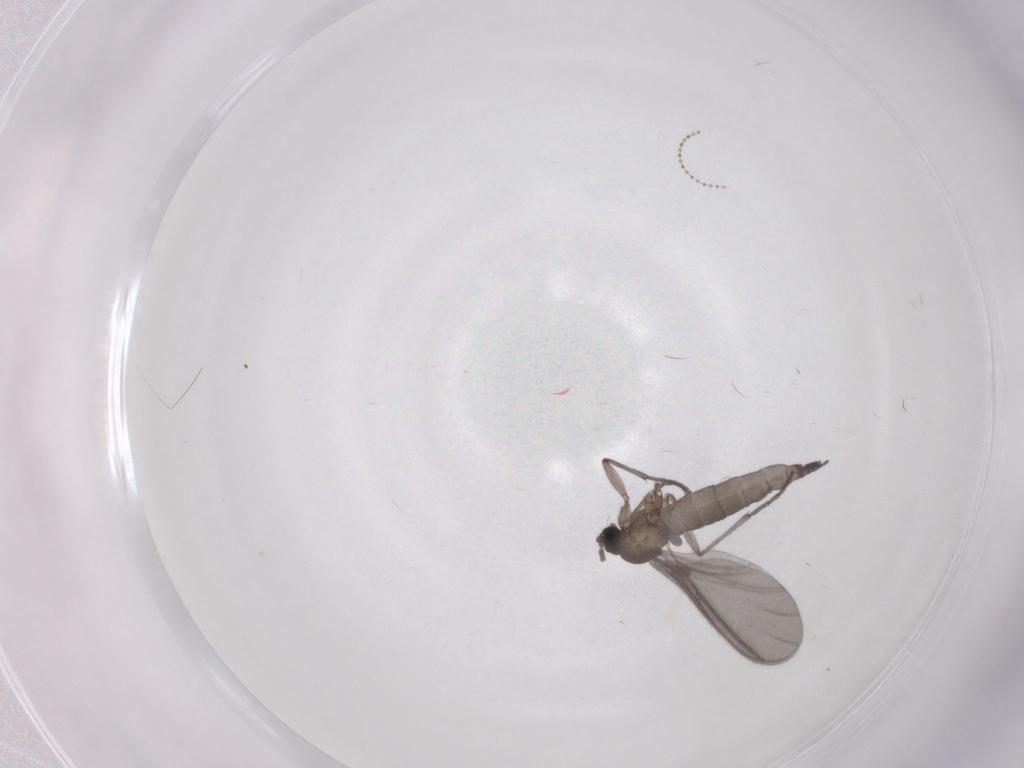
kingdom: Animalia
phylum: Arthropoda
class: Insecta
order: Diptera
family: Sciaridae
